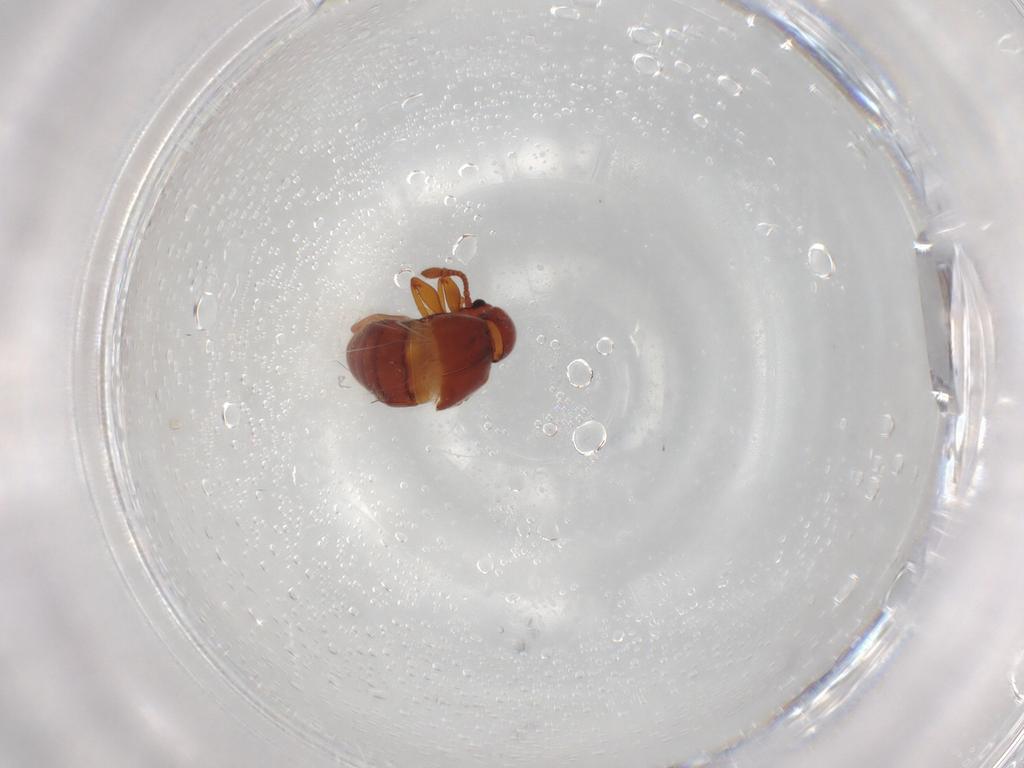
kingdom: Animalia
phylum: Arthropoda
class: Insecta
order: Coleoptera
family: Staphylinidae
